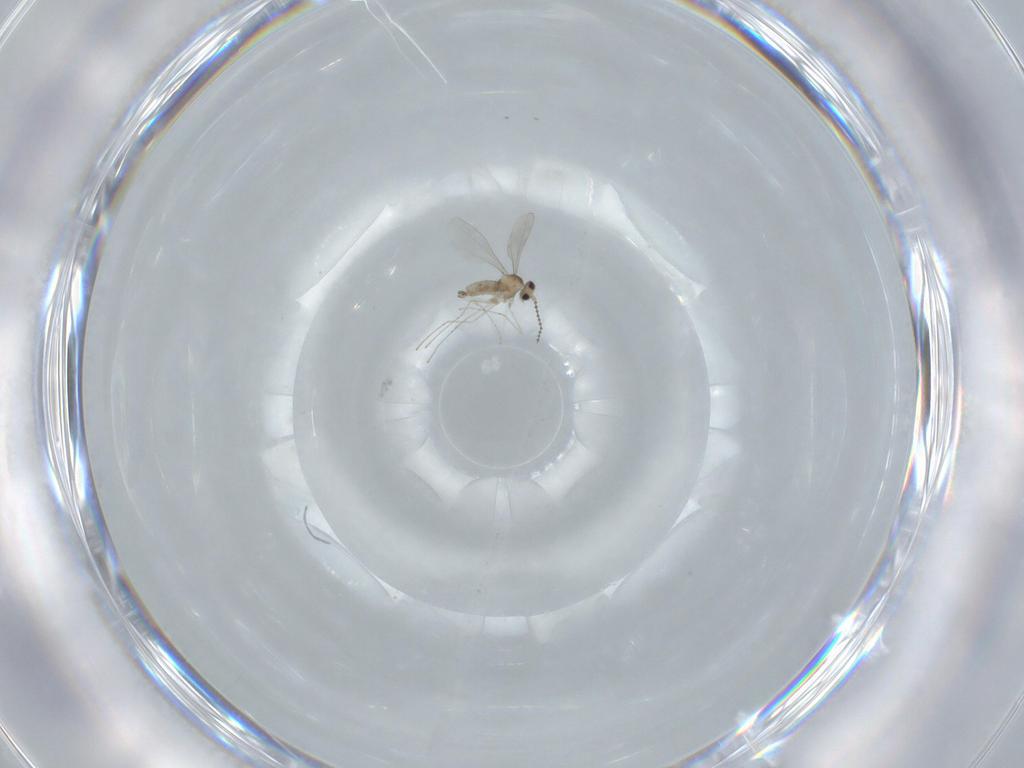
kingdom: Animalia
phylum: Arthropoda
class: Insecta
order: Diptera
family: Cecidomyiidae
